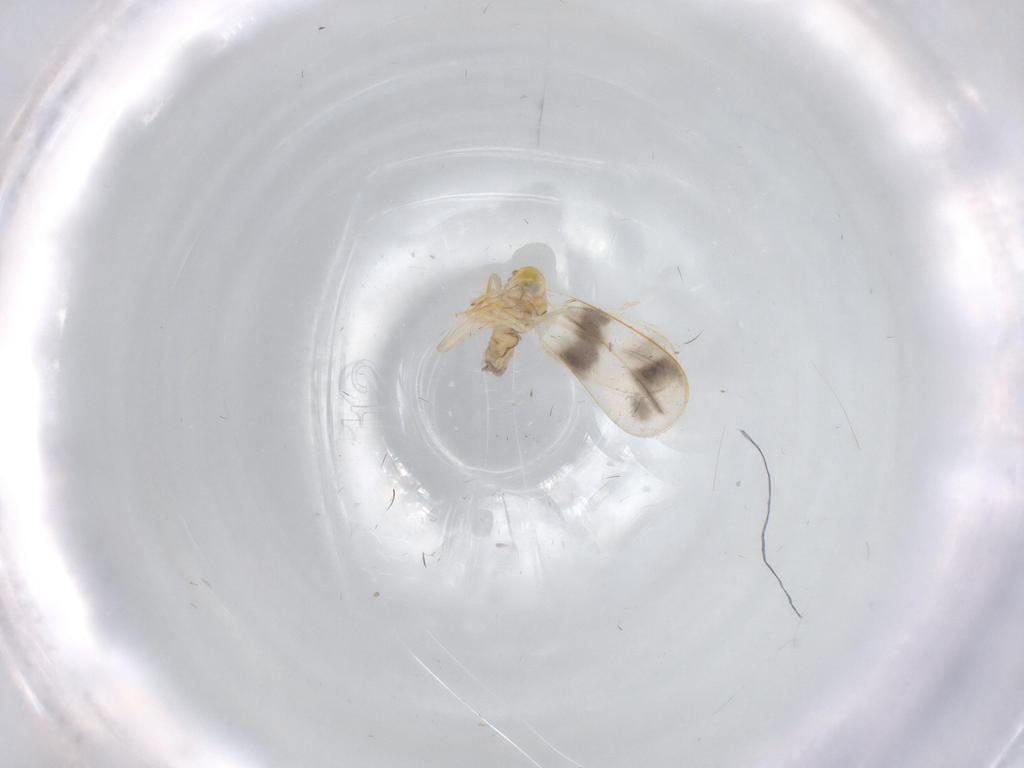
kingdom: Animalia
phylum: Arthropoda
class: Insecta
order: Hemiptera
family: Aleyrodidae
